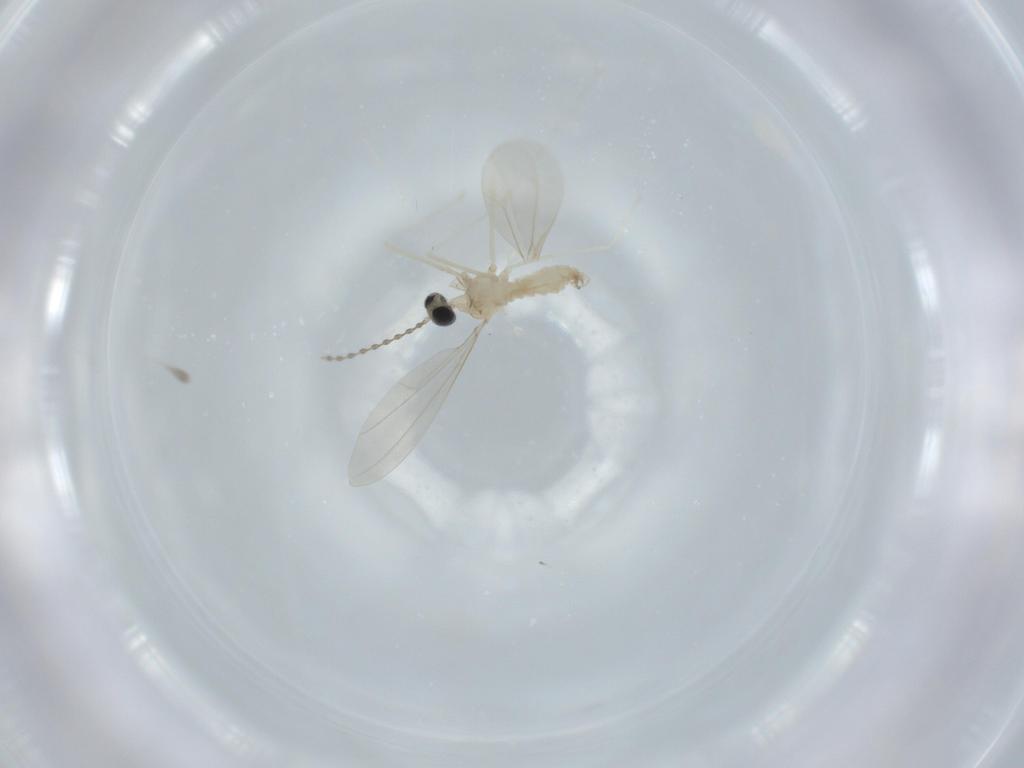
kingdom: Animalia
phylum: Arthropoda
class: Insecta
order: Diptera
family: Cecidomyiidae
